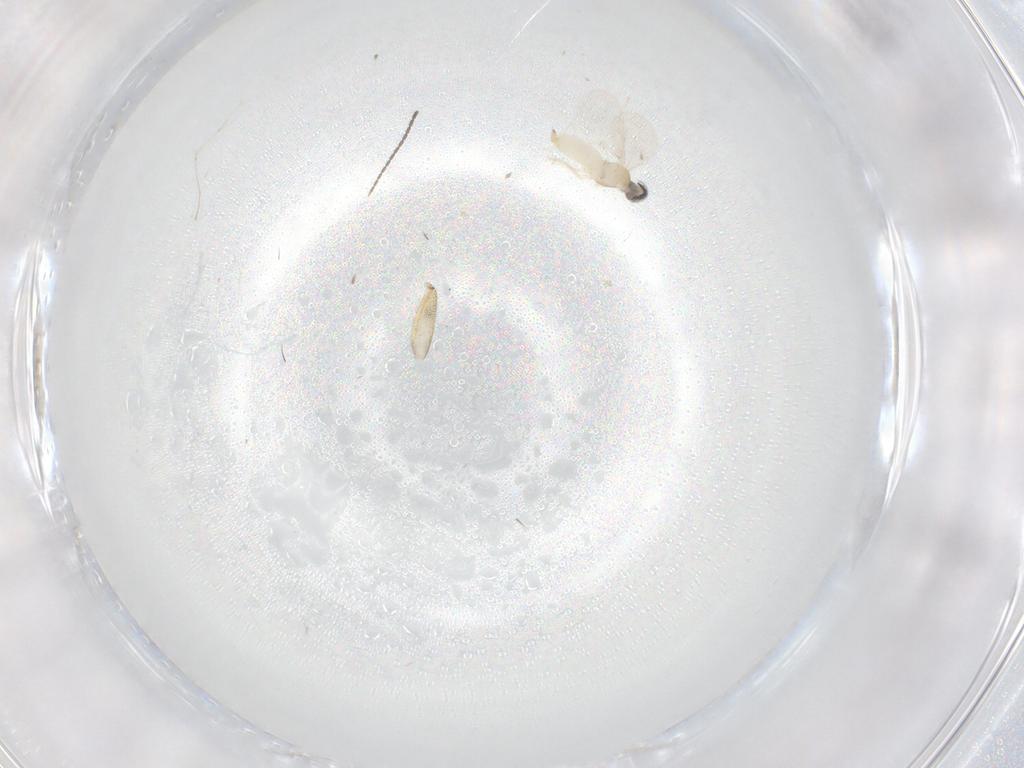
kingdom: Animalia
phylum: Arthropoda
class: Insecta
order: Diptera
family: Cecidomyiidae
